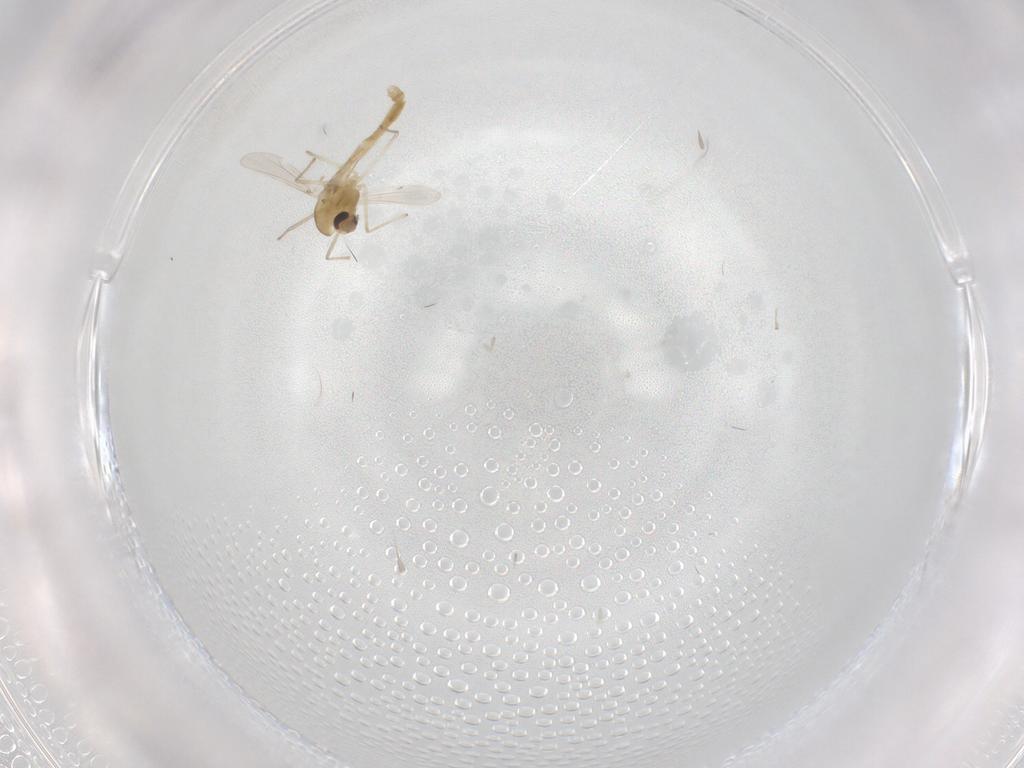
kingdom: Animalia
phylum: Arthropoda
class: Insecta
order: Diptera
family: Chironomidae
